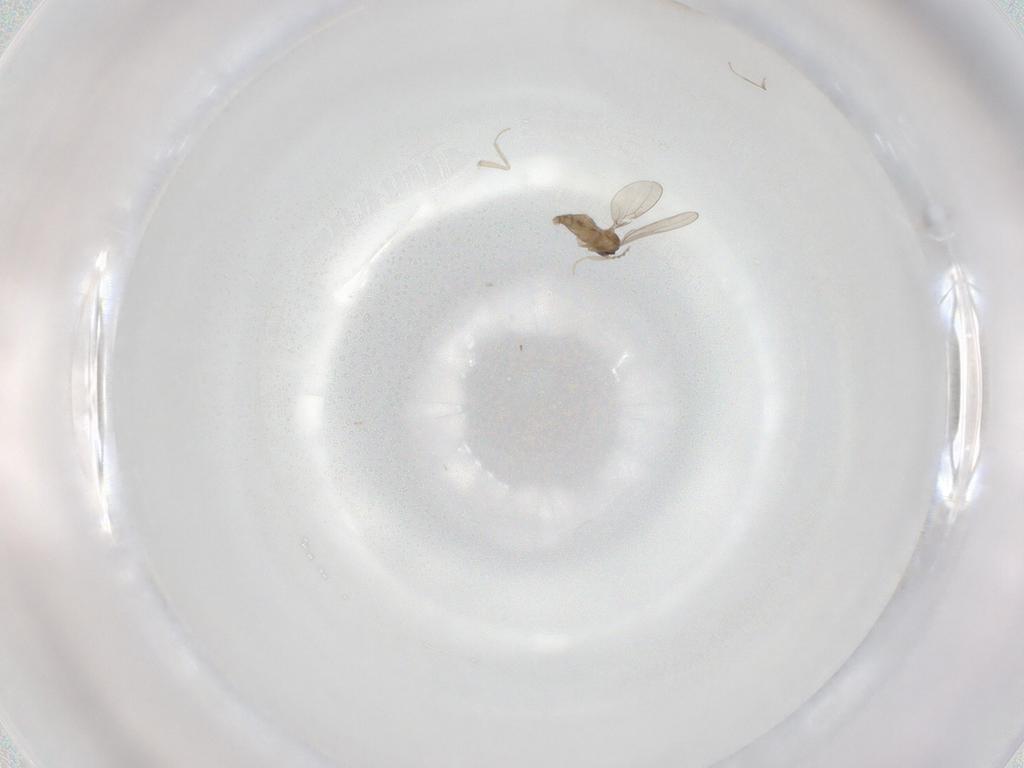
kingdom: Animalia
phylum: Arthropoda
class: Insecta
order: Diptera
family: Cecidomyiidae
